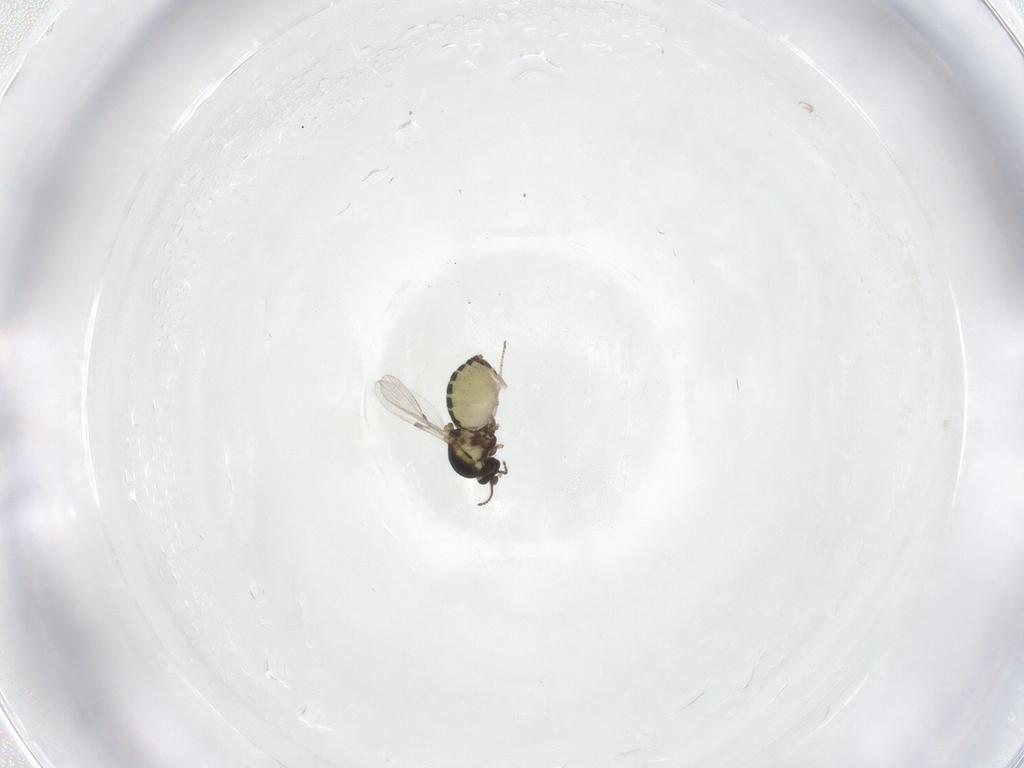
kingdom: Animalia
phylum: Arthropoda
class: Insecta
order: Diptera
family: Ceratopogonidae
